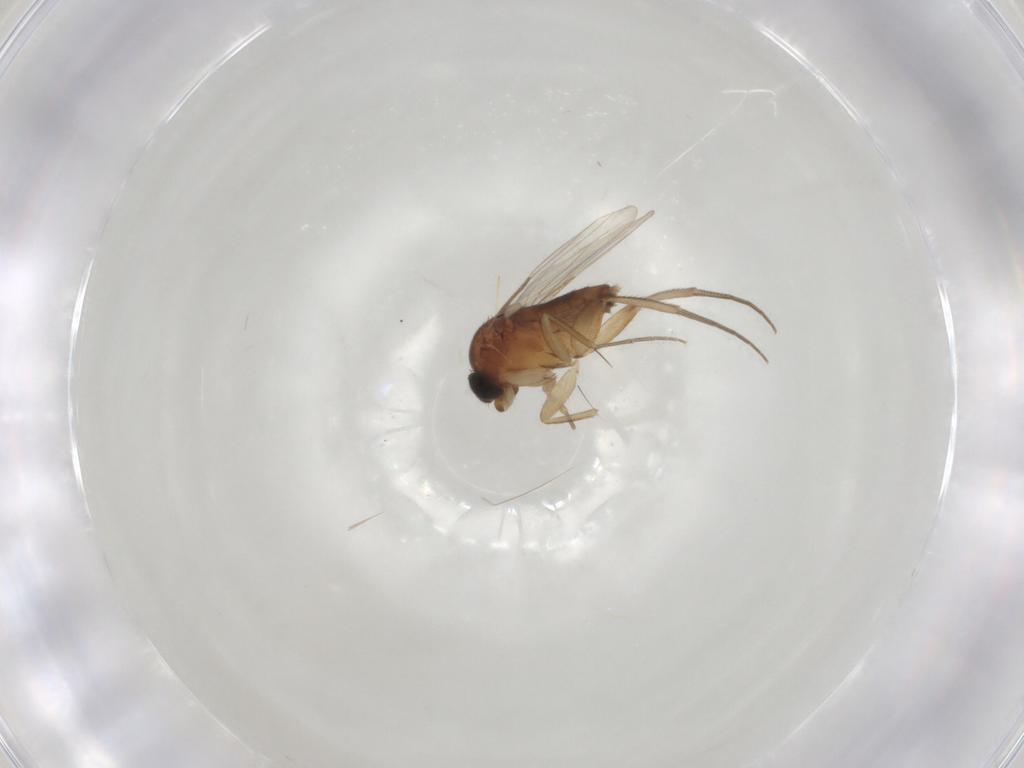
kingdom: Animalia
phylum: Arthropoda
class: Insecta
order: Diptera
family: Phoridae
